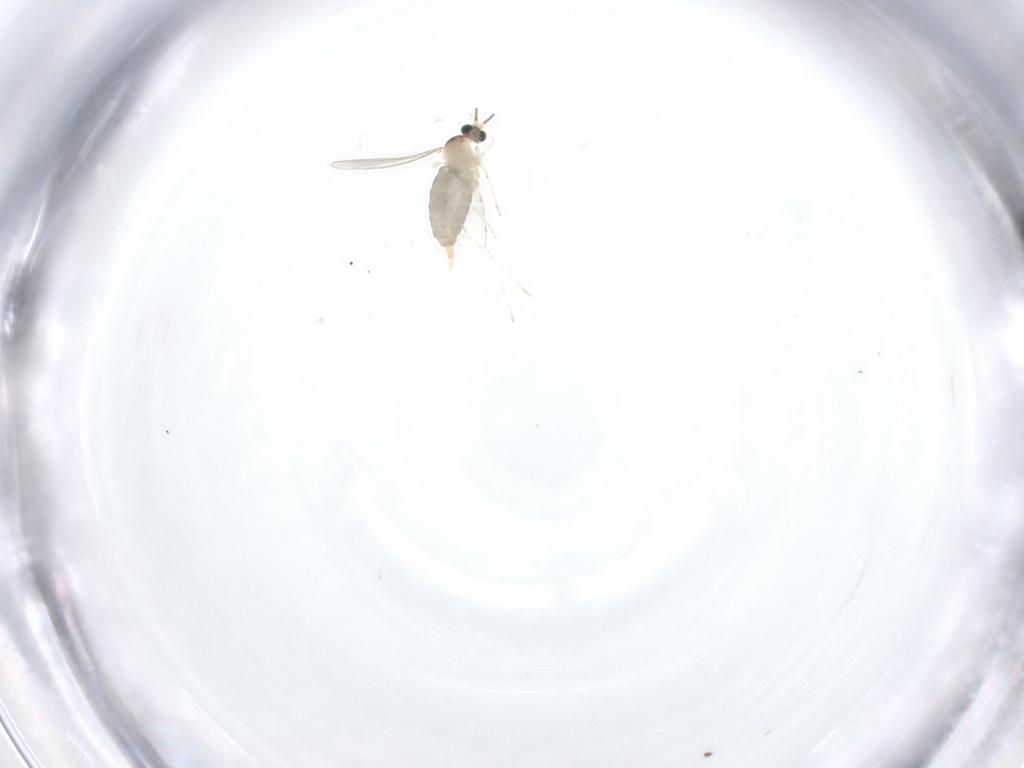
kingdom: Animalia
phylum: Arthropoda
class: Insecta
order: Diptera
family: Cecidomyiidae
